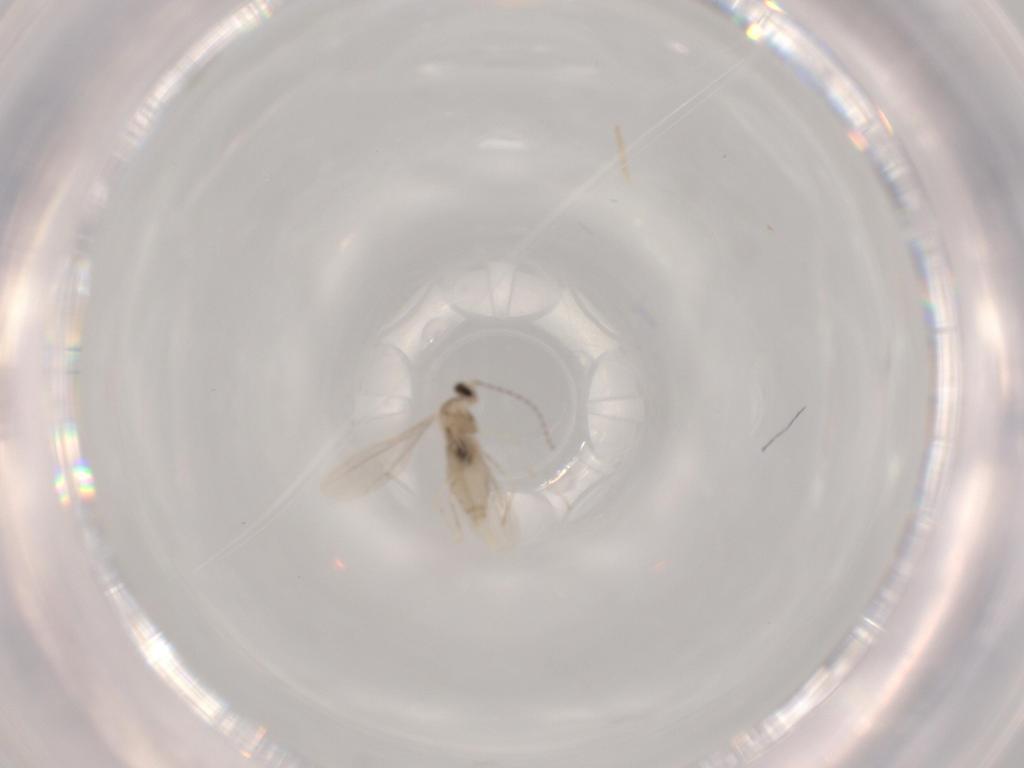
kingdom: Animalia
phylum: Arthropoda
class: Insecta
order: Diptera
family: Cecidomyiidae
